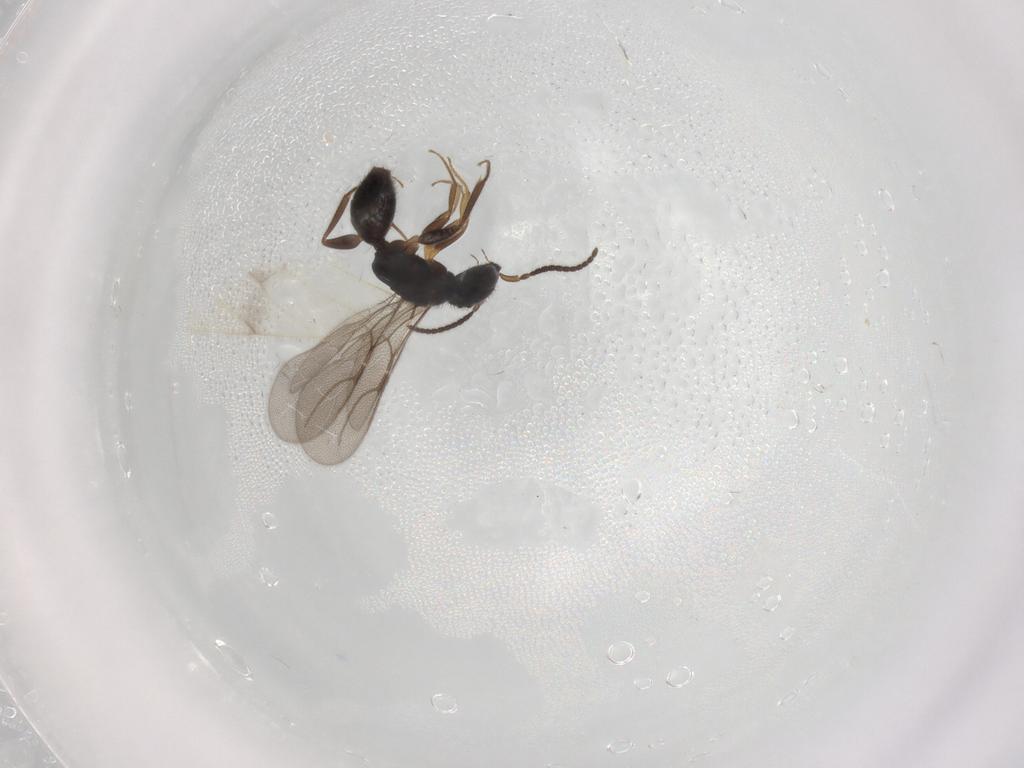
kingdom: Animalia
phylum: Arthropoda
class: Insecta
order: Hymenoptera
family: Bethylidae
